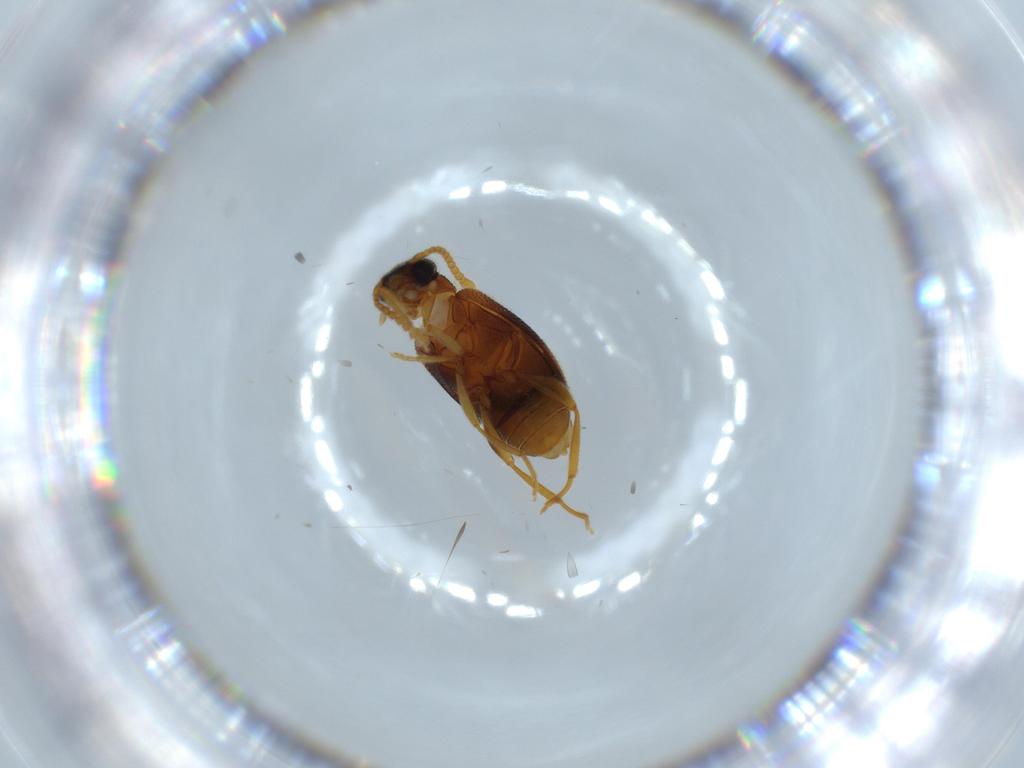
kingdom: Animalia
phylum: Arthropoda
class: Insecta
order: Coleoptera
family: Aderidae
